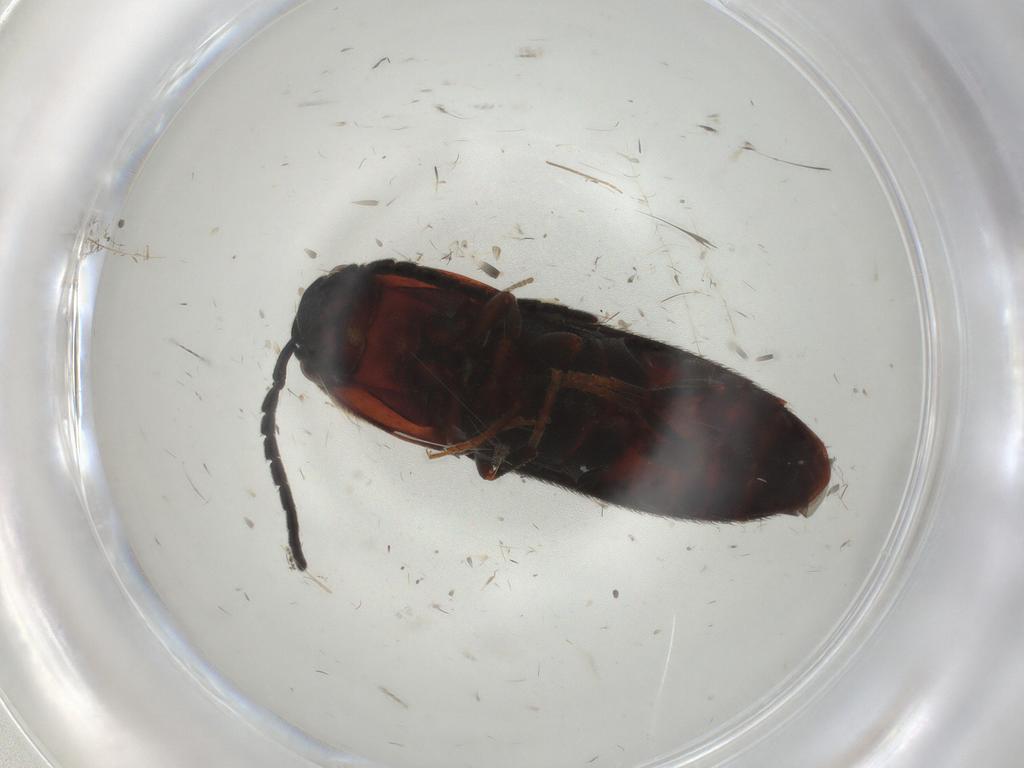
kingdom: Animalia
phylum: Arthropoda
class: Insecta
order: Coleoptera
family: Eucnemidae
